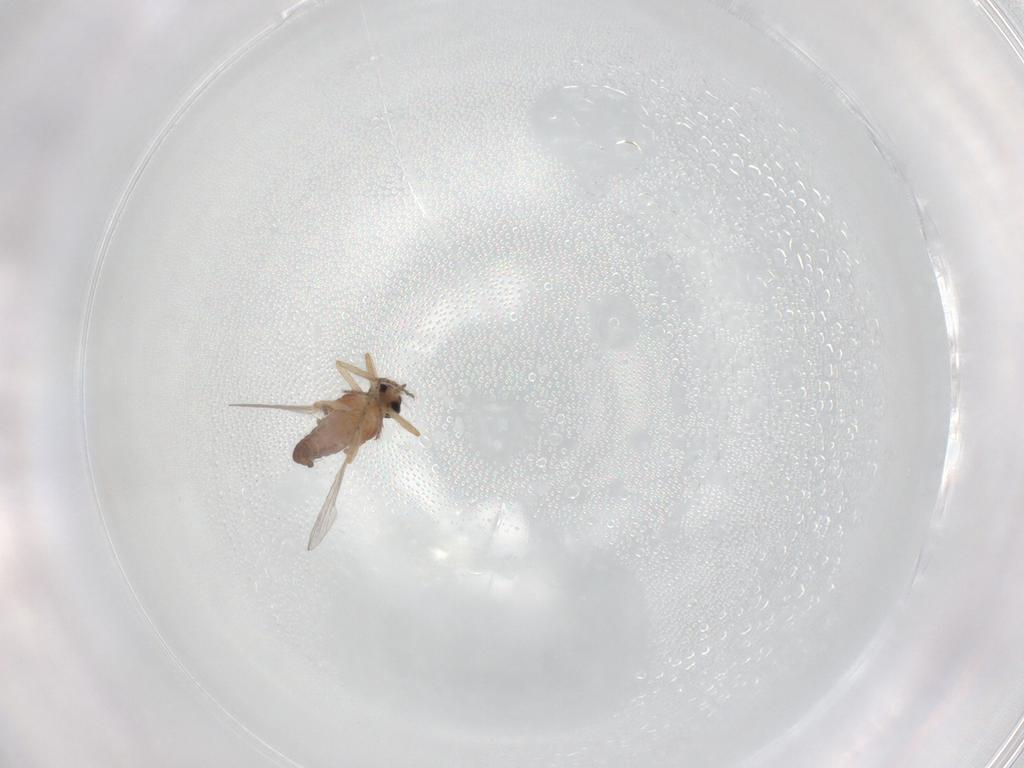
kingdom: Animalia
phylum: Arthropoda
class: Insecta
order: Diptera
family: Ceratopogonidae
